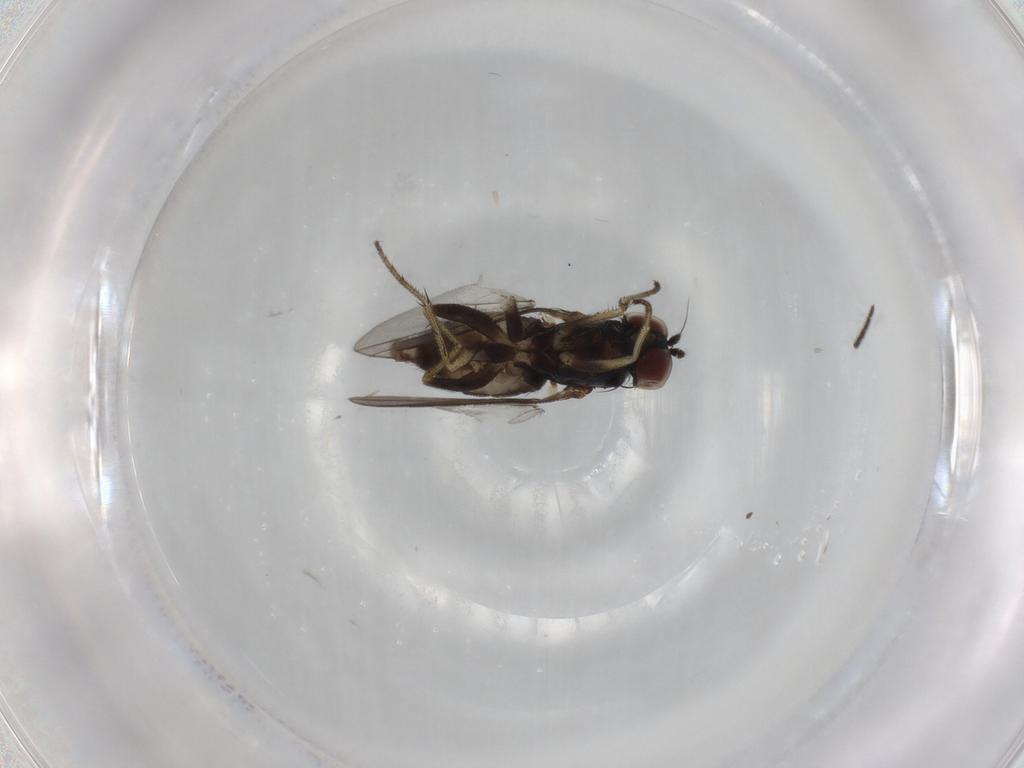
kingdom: Animalia
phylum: Arthropoda
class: Insecta
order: Diptera
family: Sciaridae
